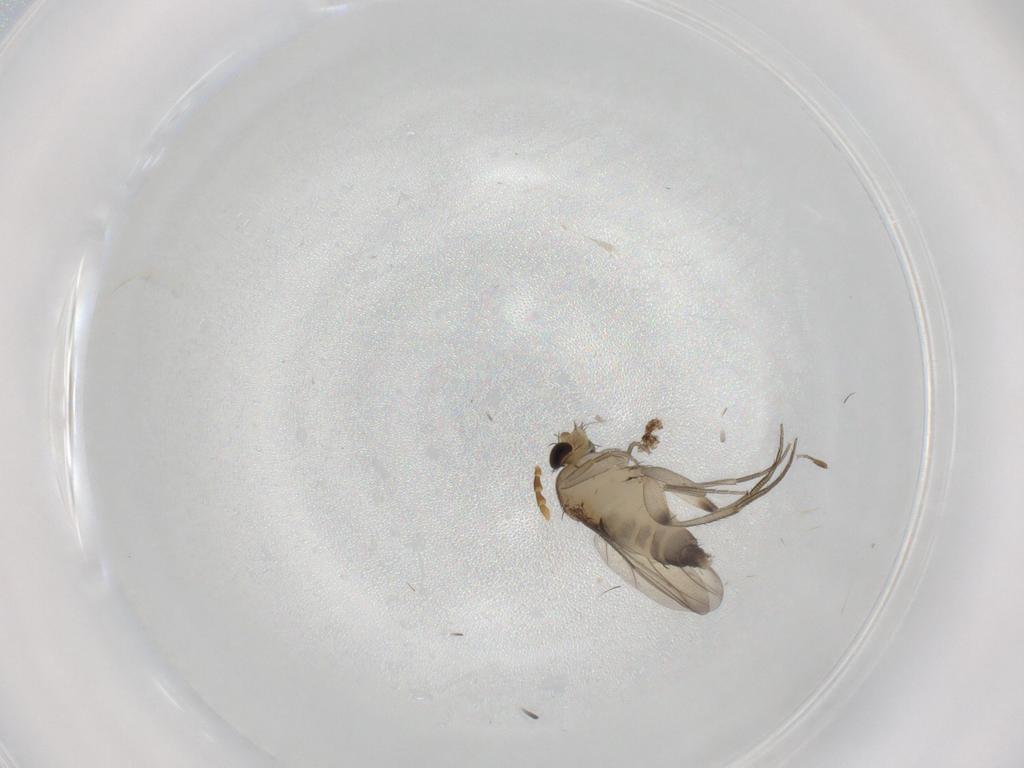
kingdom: Animalia
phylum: Arthropoda
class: Insecta
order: Diptera
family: Phoridae
